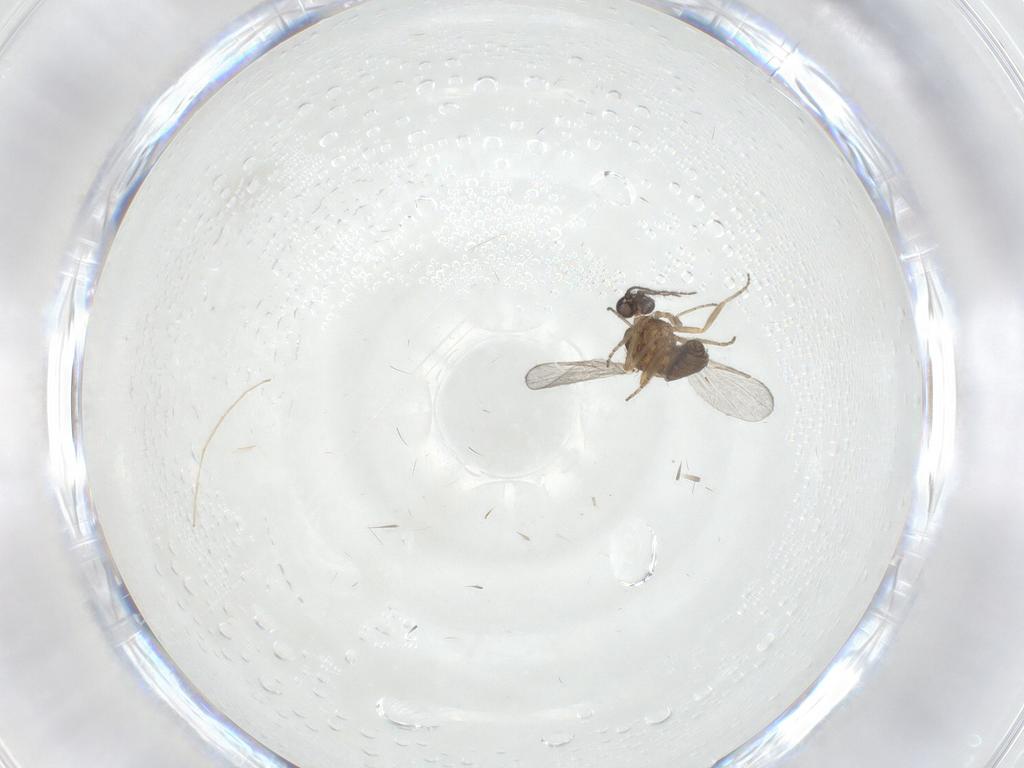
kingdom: Animalia
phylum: Arthropoda
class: Insecta
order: Diptera
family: Ceratopogonidae
